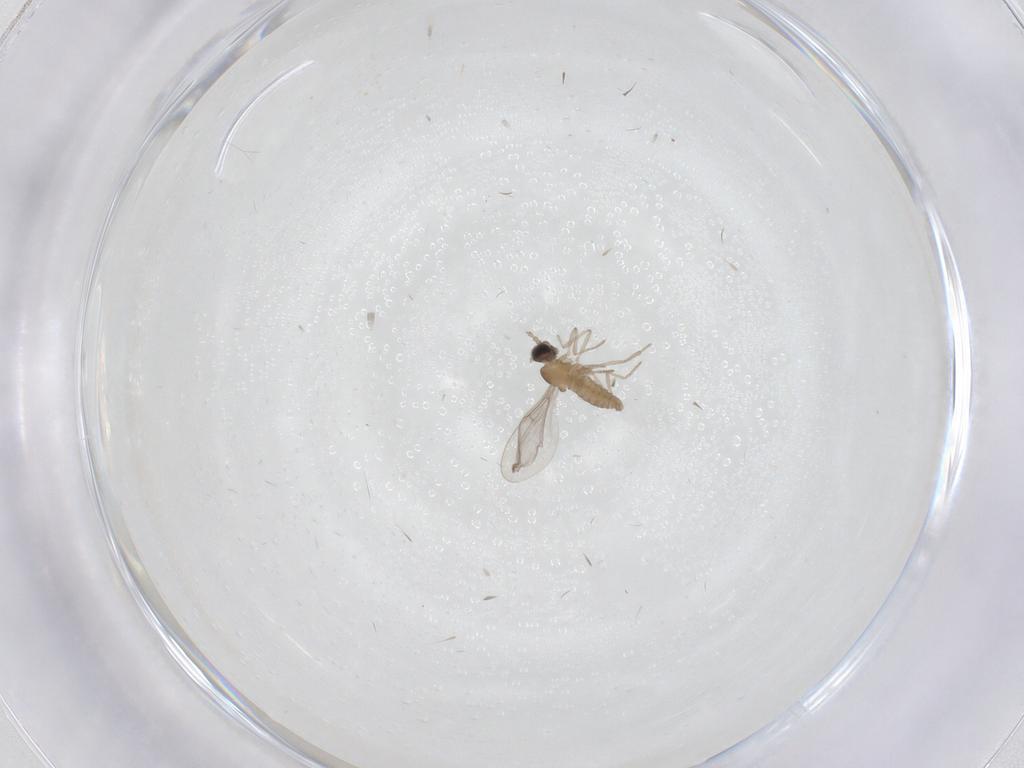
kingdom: Animalia
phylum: Arthropoda
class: Insecta
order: Diptera
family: Cecidomyiidae
